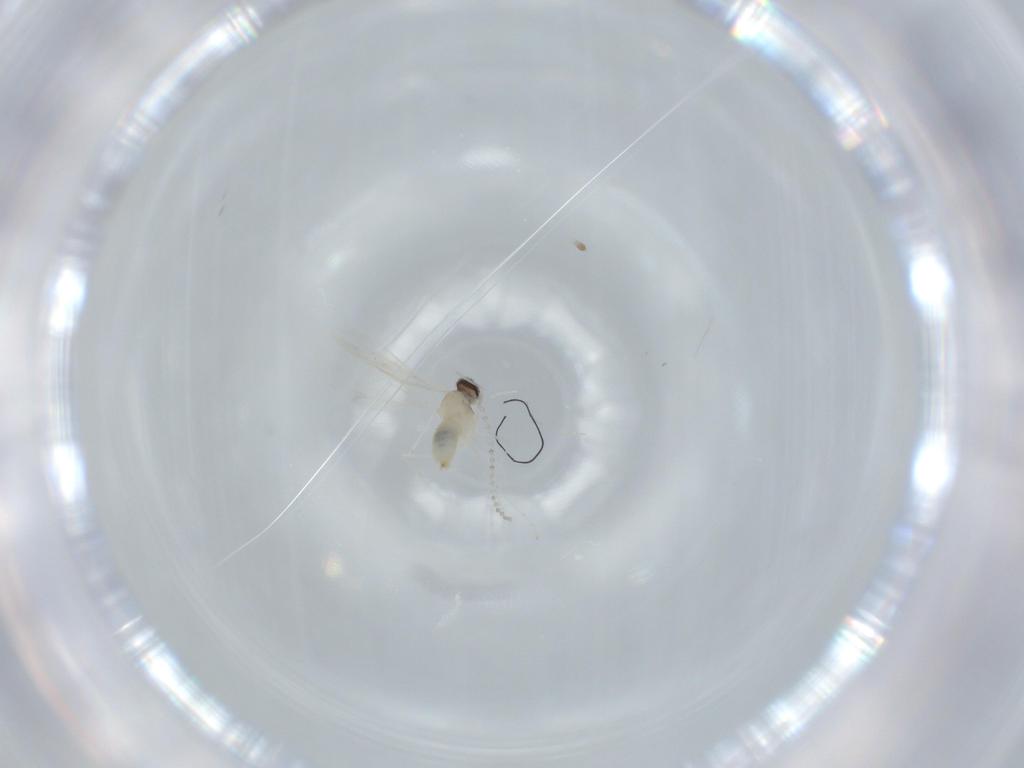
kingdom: Animalia
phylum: Arthropoda
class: Insecta
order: Diptera
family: Cecidomyiidae
